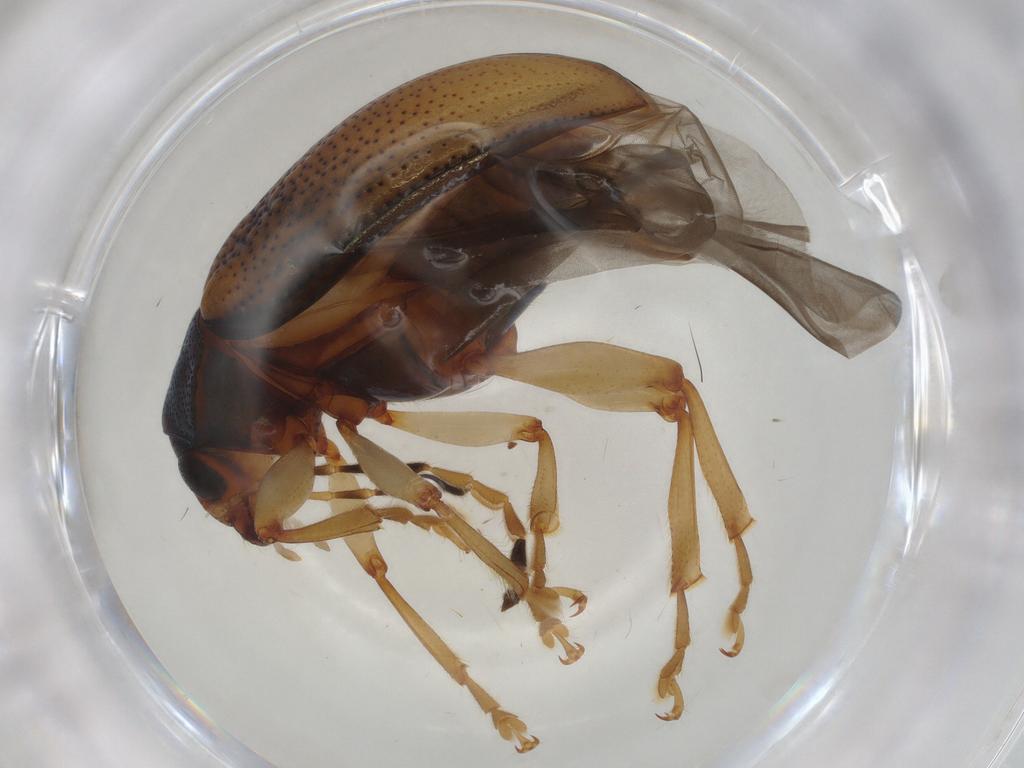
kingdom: Animalia
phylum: Arthropoda
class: Insecta
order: Coleoptera
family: Chrysomelidae
